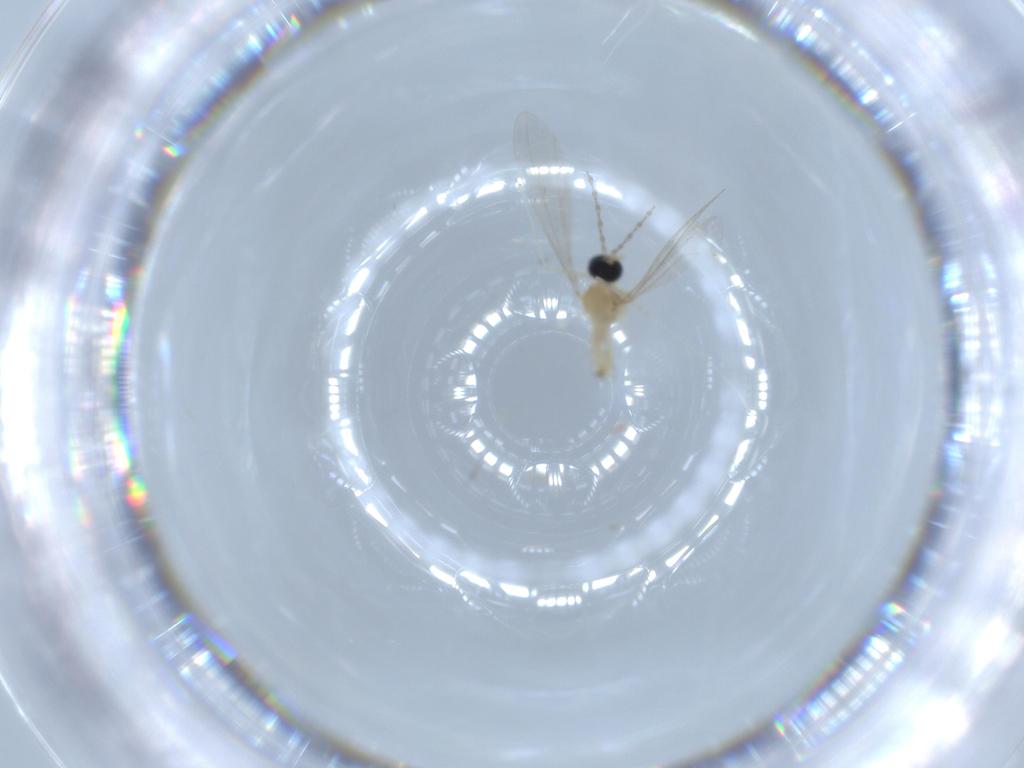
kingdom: Animalia
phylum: Arthropoda
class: Insecta
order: Diptera
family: Cecidomyiidae
